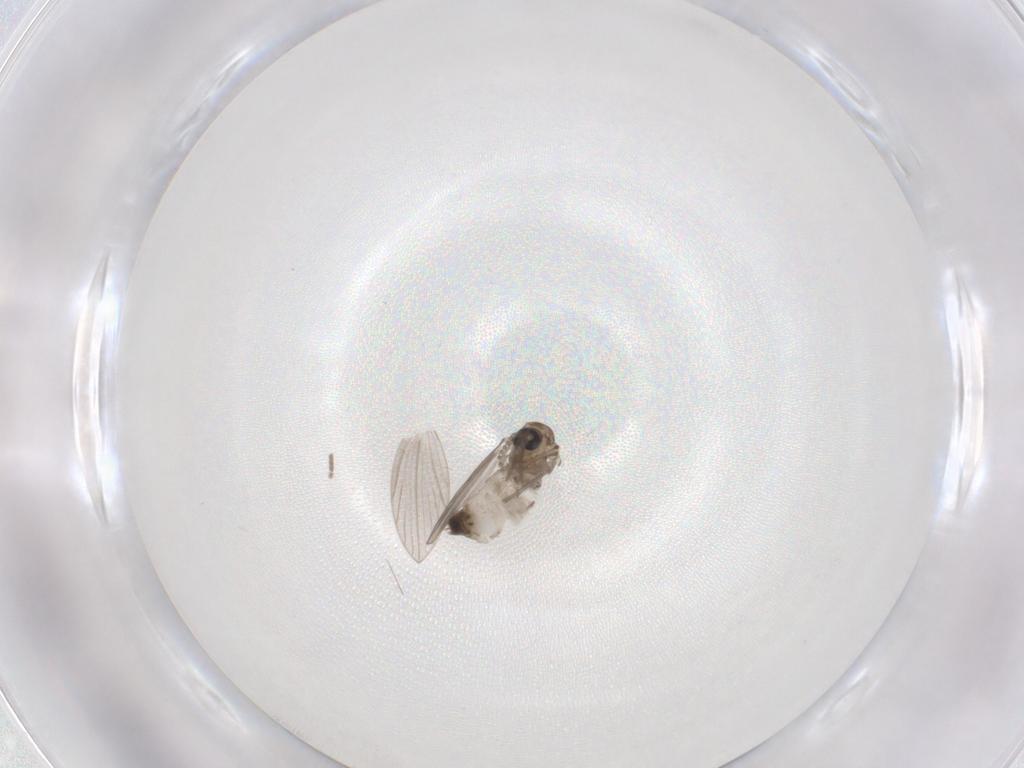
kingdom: Animalia
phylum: Arthropoda
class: Insecta
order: Diptera
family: Psychodidae
